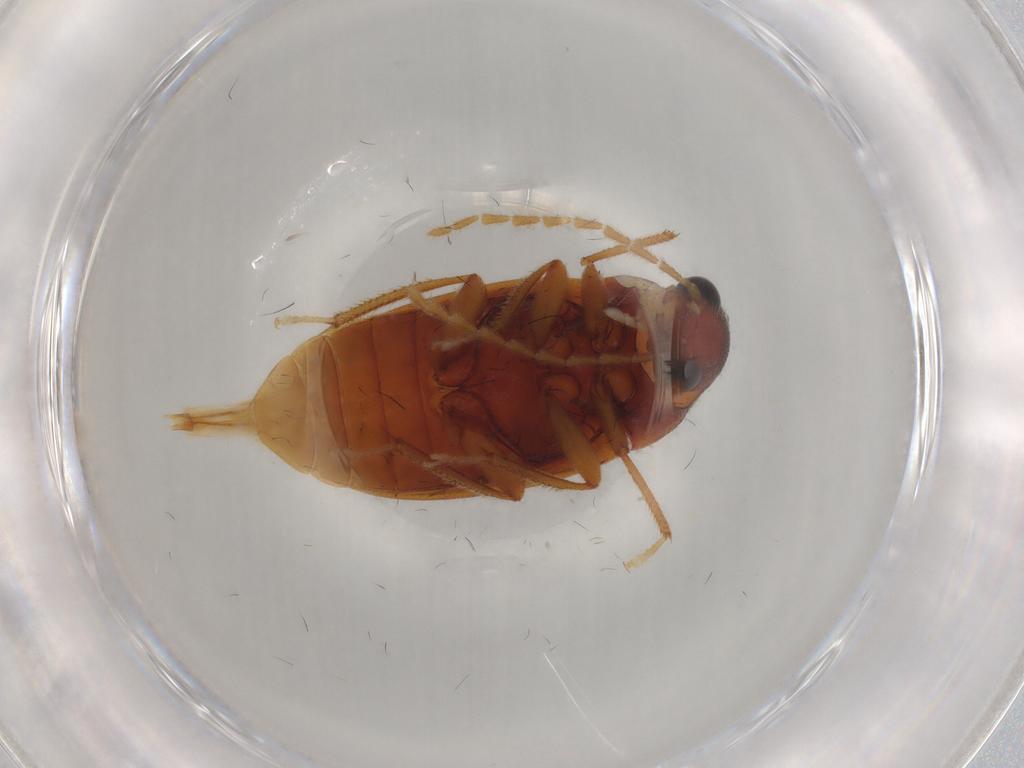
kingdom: Animalia
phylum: Arthropoda
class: Insecta
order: Coleoptera
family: Ptilodactylidae
